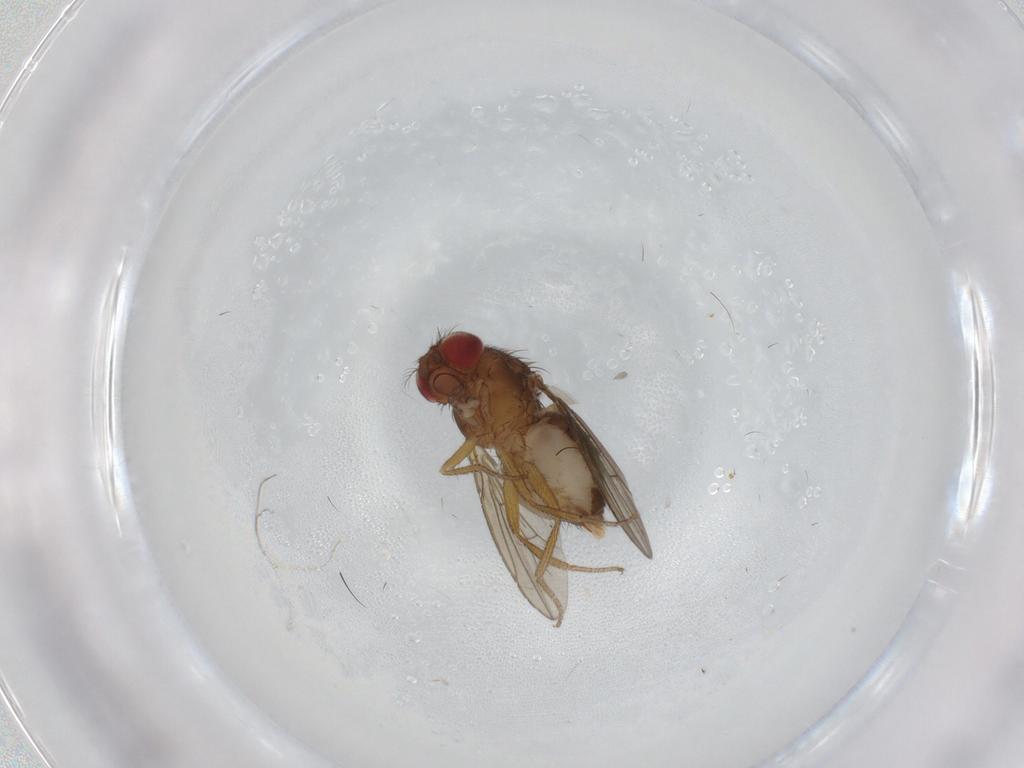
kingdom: Animalia
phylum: Arthropoda
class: Insecta
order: Diptera
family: Drosophilidae
